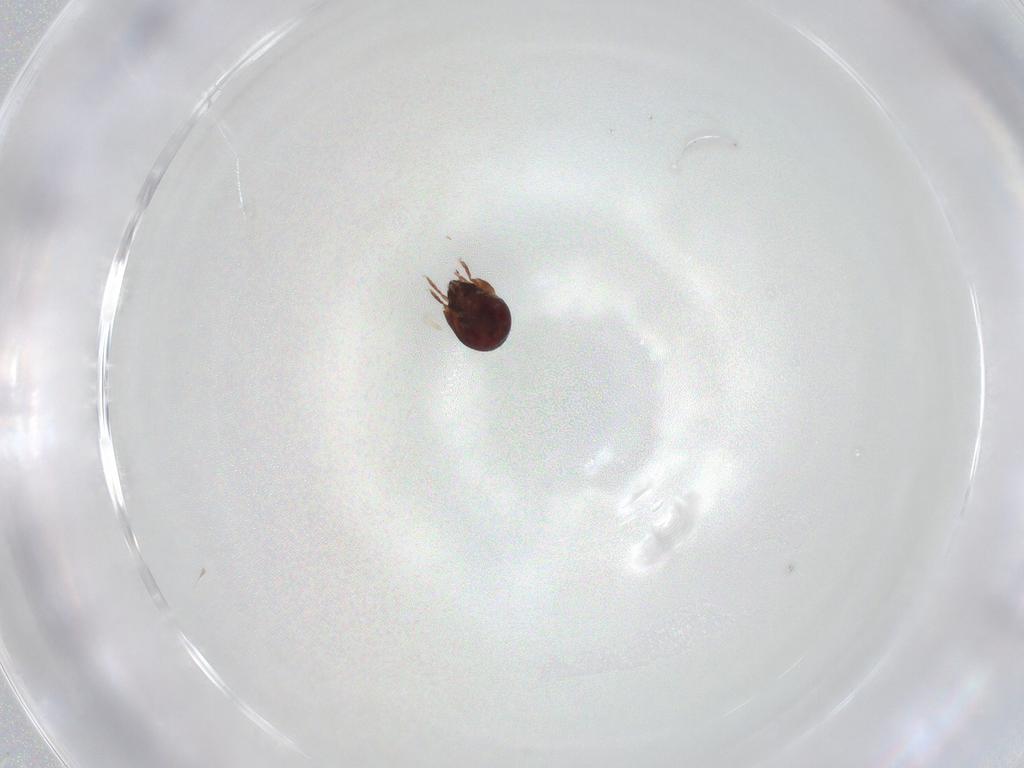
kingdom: Animalia
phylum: Arthropoda
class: Arachnida
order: Sarcoptiformes
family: Humerobatidae
